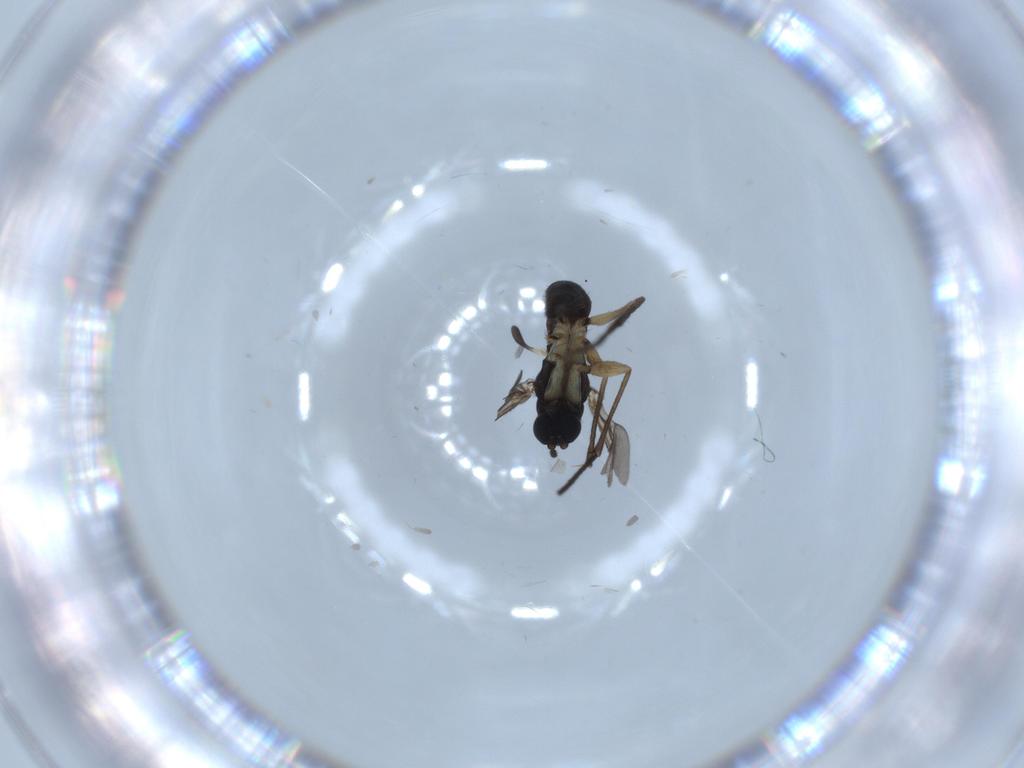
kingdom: Animalia
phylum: Arthropoda
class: Insecta
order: Diptera
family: Sciaridae
